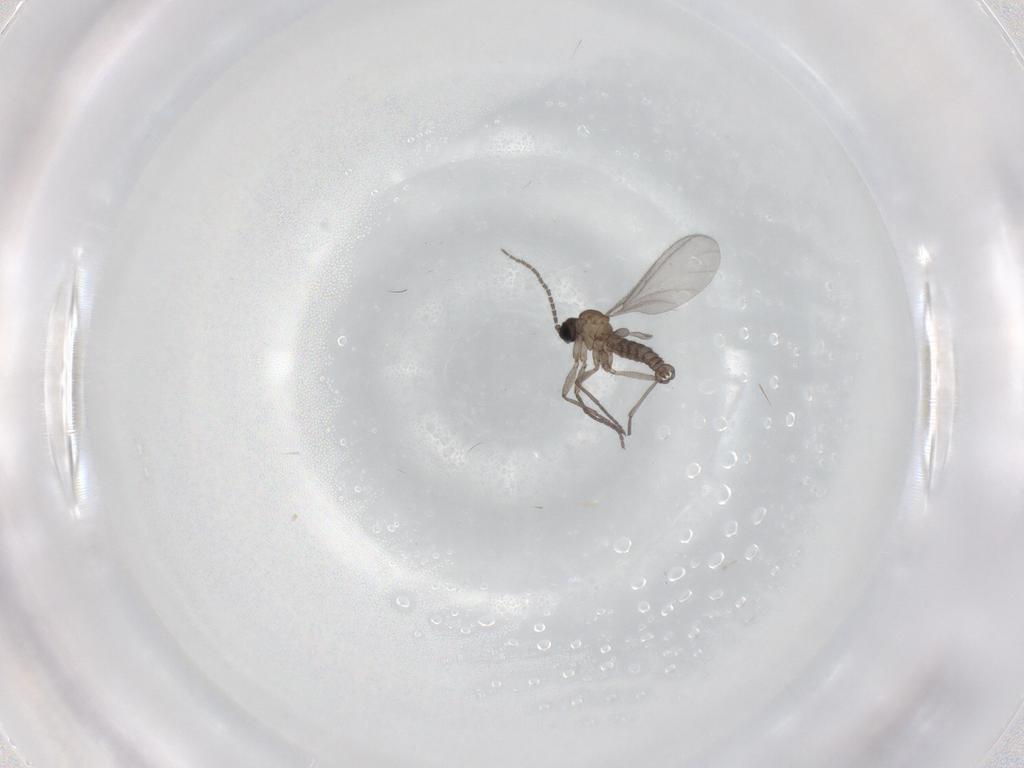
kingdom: Animalia
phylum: Arthropoda
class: Insecta
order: Diptera
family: Sciaridae
